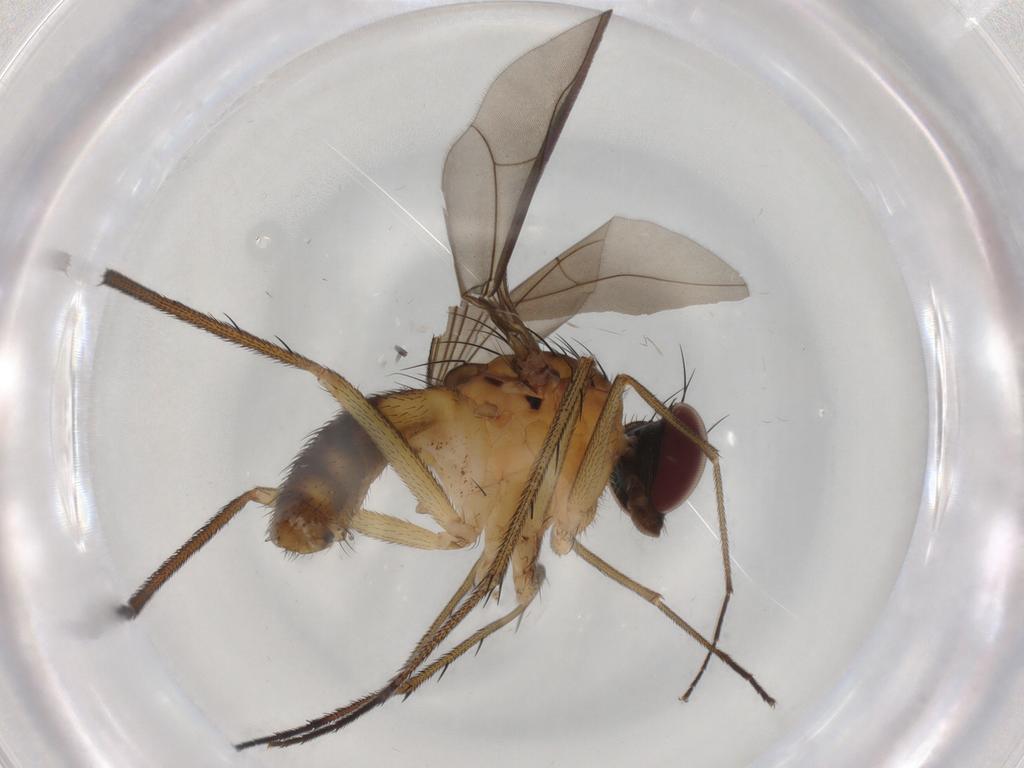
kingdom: Animalia
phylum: Arthropoda
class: Insecta
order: Diptera
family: Dolichopodidae
